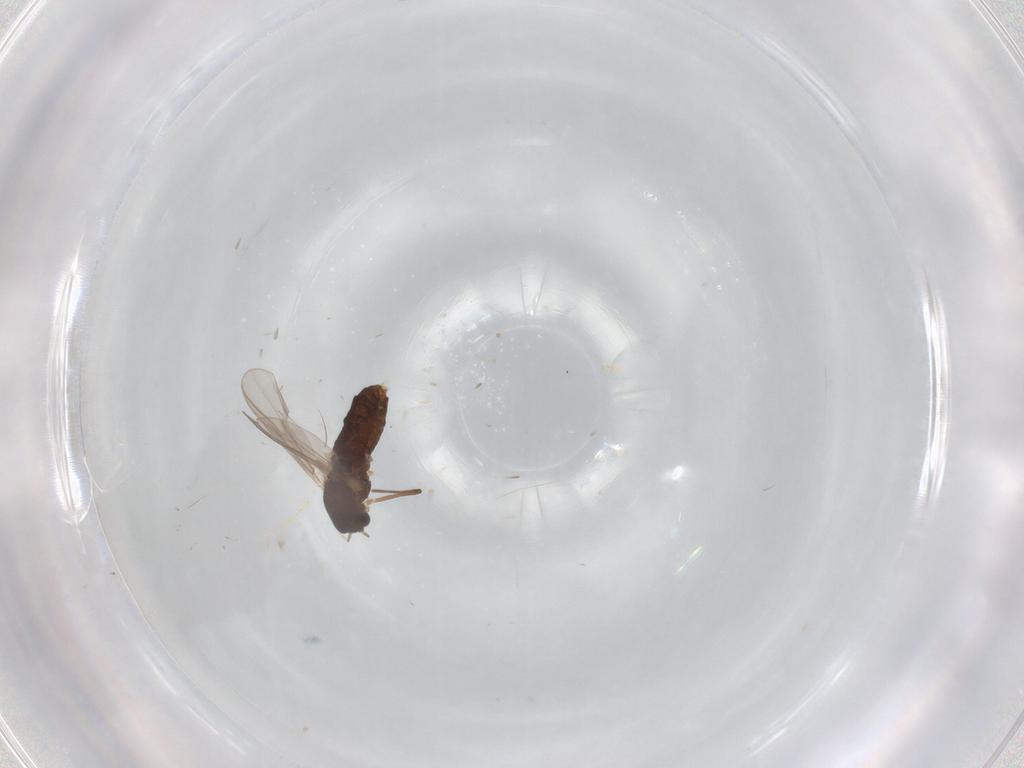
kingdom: Animalia
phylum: Arthropoda
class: Insecta
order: Diptera
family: Chironomidae
